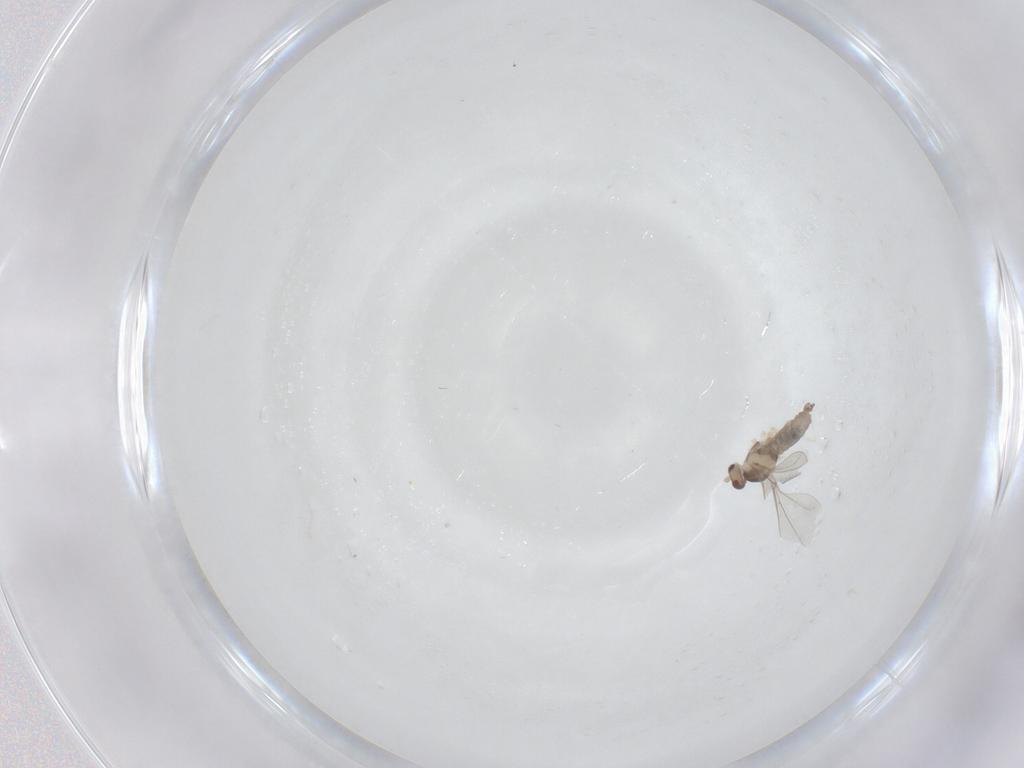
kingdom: Animalia
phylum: Arthropoda
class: Insecta
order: Diptera
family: Cecidomyiidae
